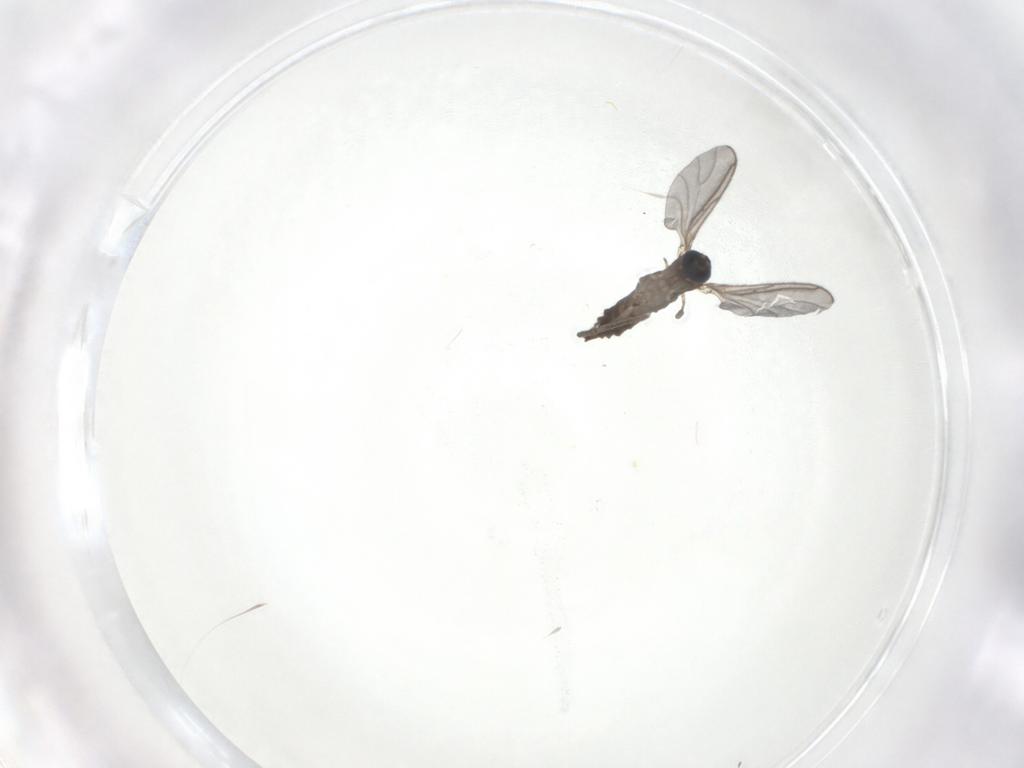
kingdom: Animalia
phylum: Arthropoda
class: Insecta
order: Diptera
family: Sciaridae
